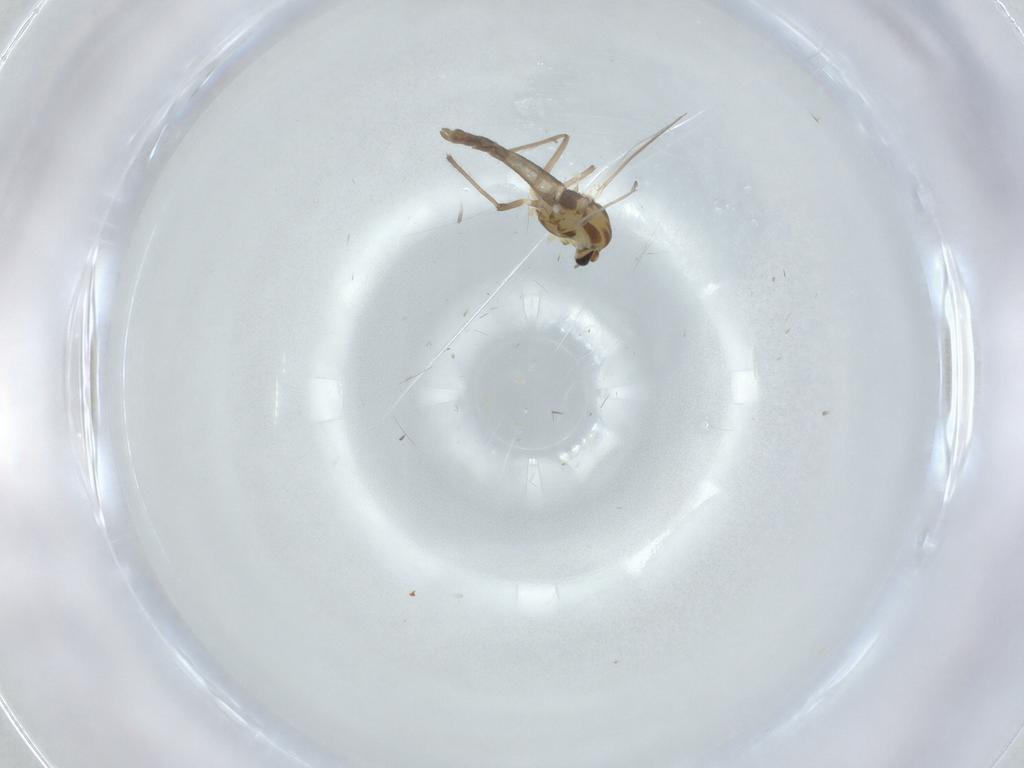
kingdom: Animalia
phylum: Arthropoda
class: Insecta
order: Diptera
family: Chironomidae
